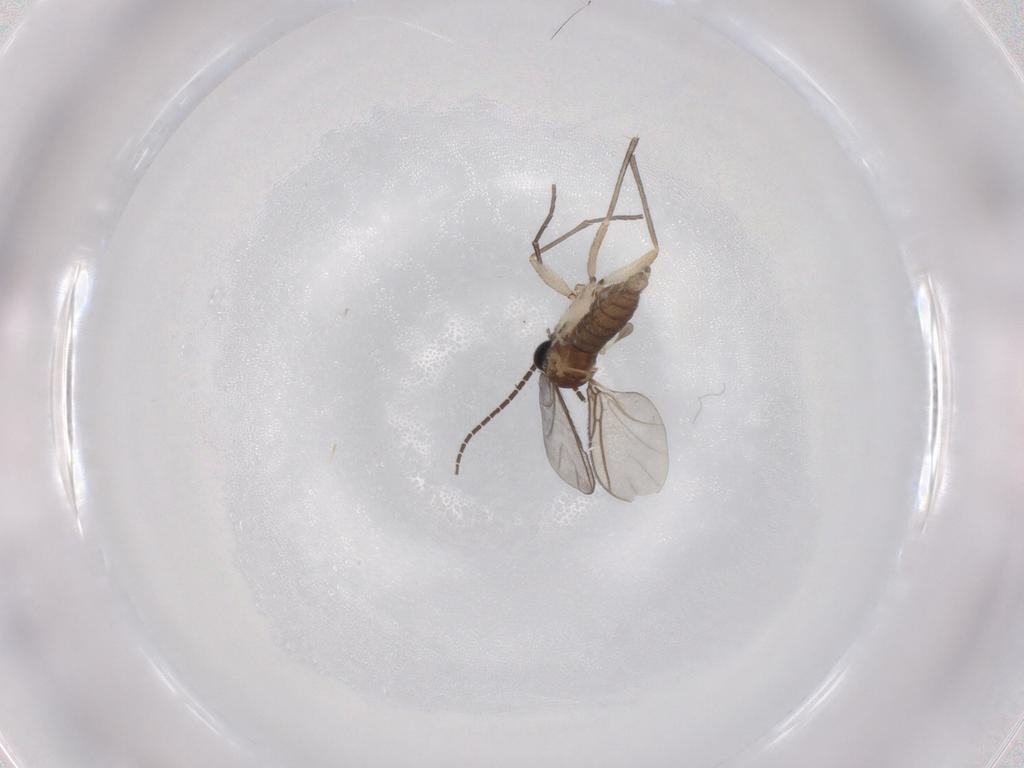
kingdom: Animalia
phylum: Arthropoda
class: Insecta
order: Diptera
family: Sciaridae
